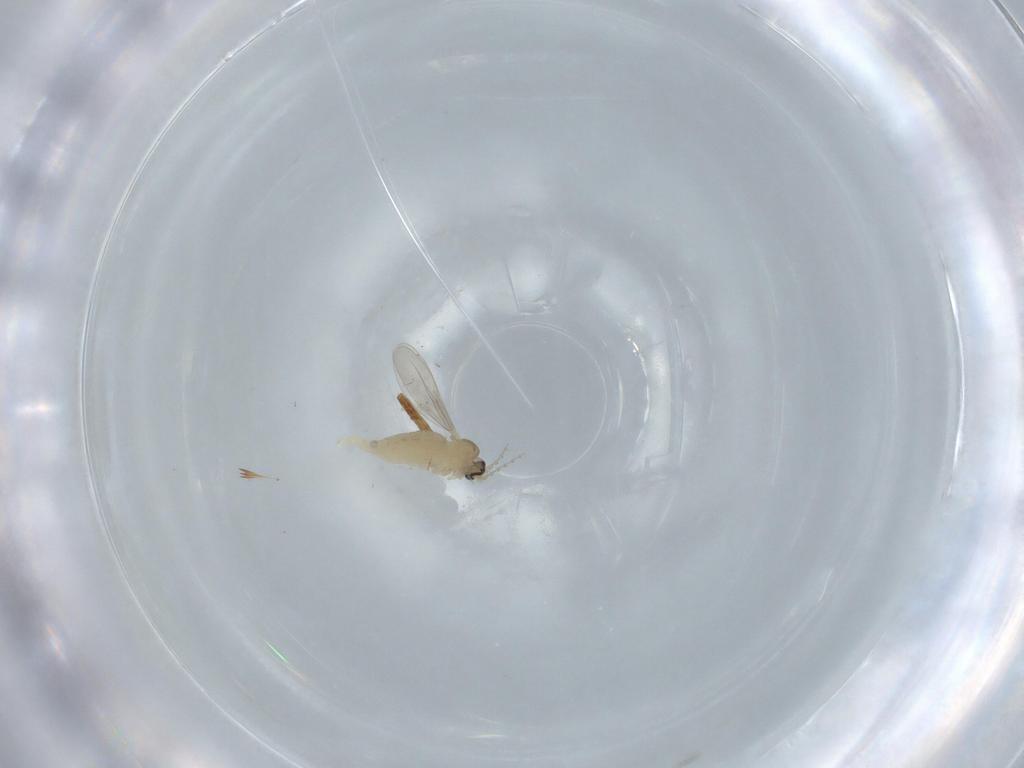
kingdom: Animalia
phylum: Arthropoda
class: Insecta
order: Diptera
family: Cecidomyiidae
